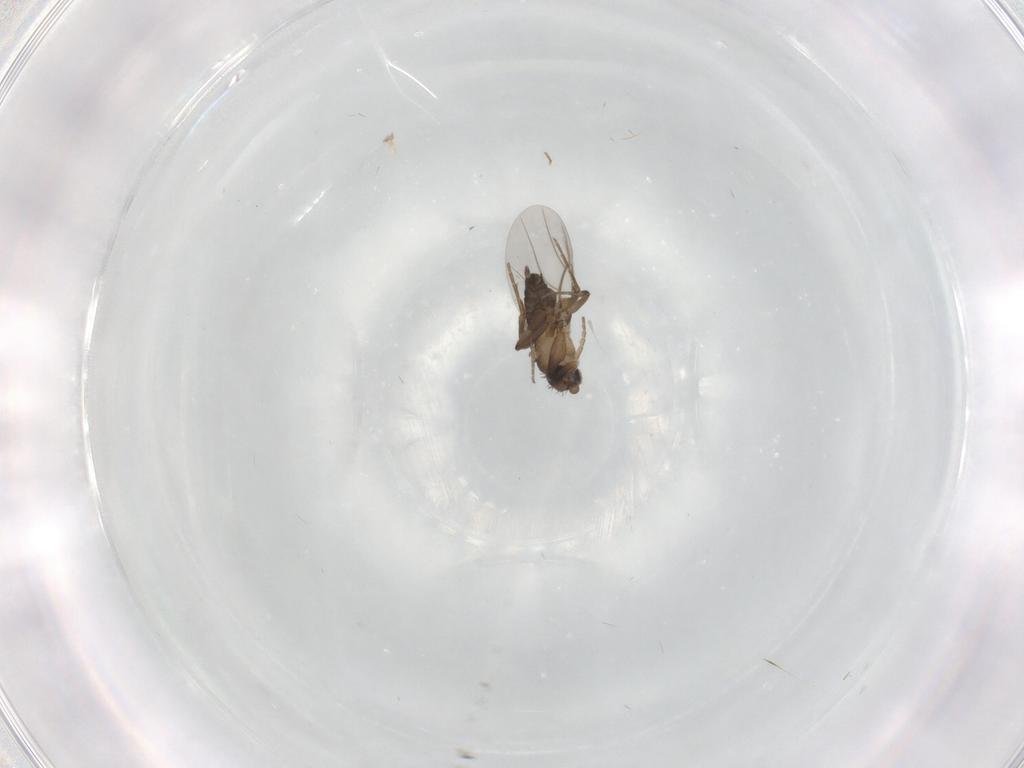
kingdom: Animalia
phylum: Arthropoda
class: Insecta
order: Diptera
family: Phoridae
